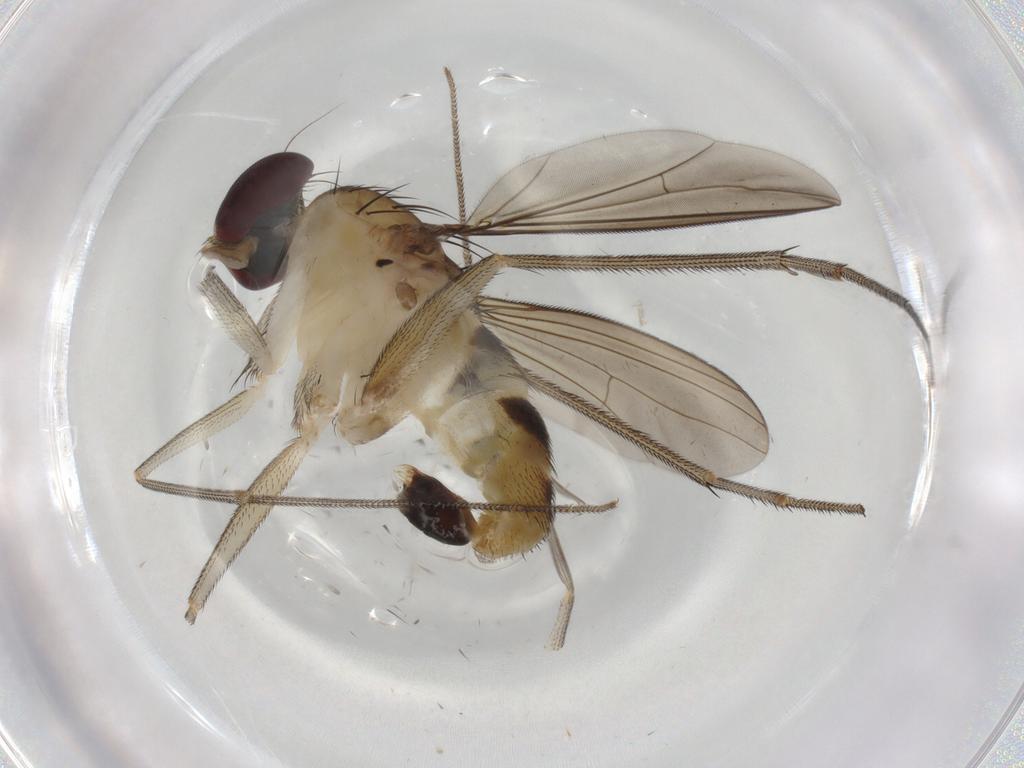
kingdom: Animalia
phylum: Arthropoda
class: Insecta
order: Diptera
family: Dolichopodidae
